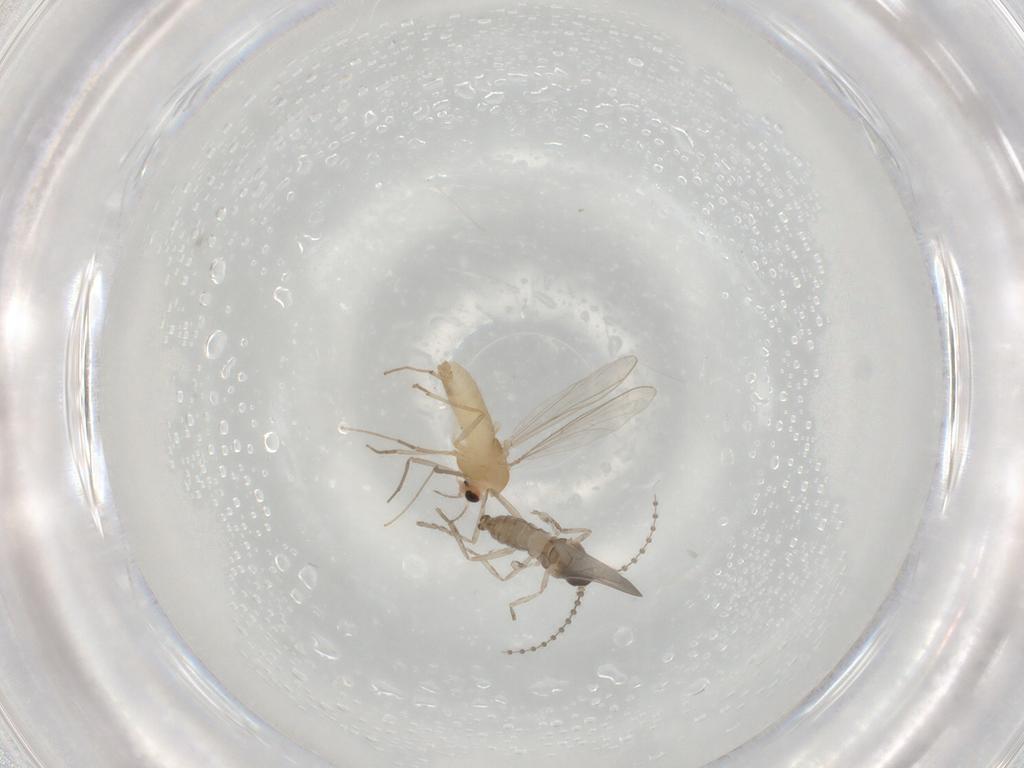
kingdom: Animalia
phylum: Arthropoda
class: Insecta
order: Diptera
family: Cecidomyiidae
